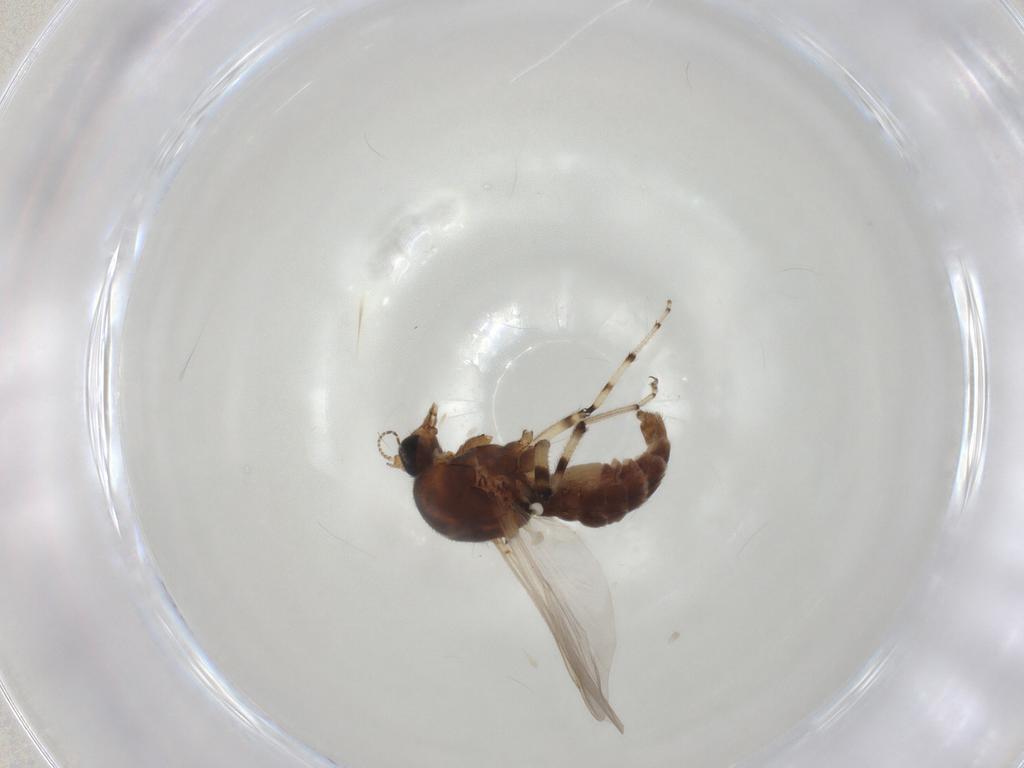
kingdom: Animalia
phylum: Arthropoda
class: Insecta
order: Diptera
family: Ceratopogonidae
